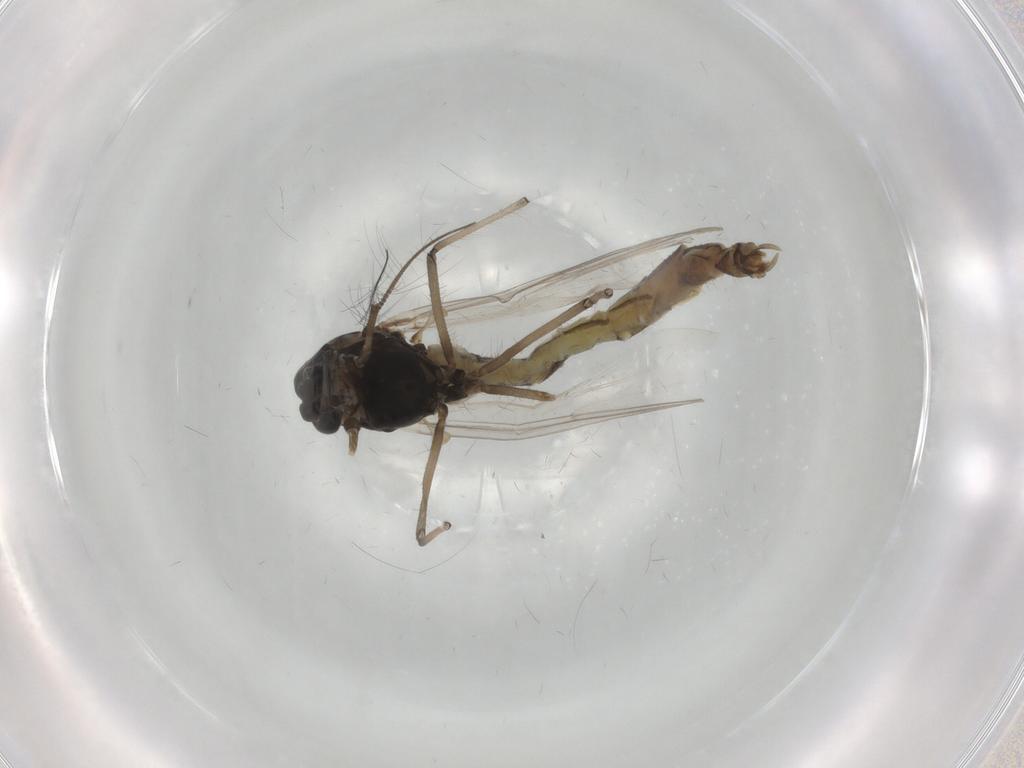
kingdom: Animalia
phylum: Arthropoda
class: Insecta
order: Diptera
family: Chironomidae
